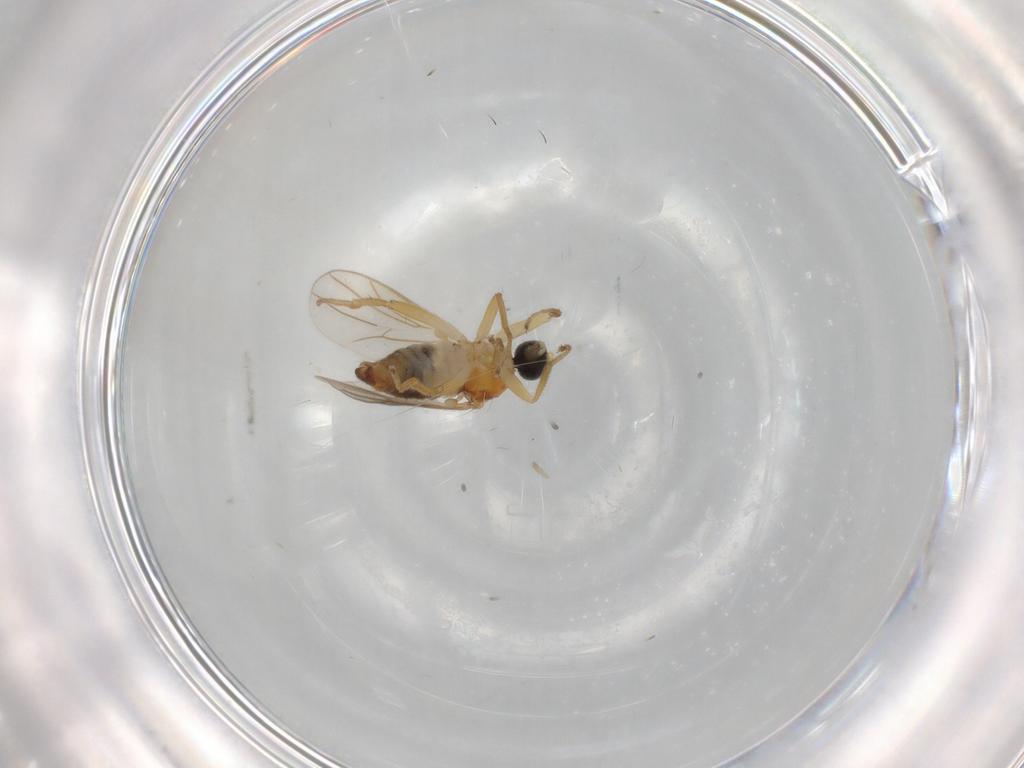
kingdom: Animalia
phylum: Arthropoda
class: Insecta
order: Diptera
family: Hybotidae
